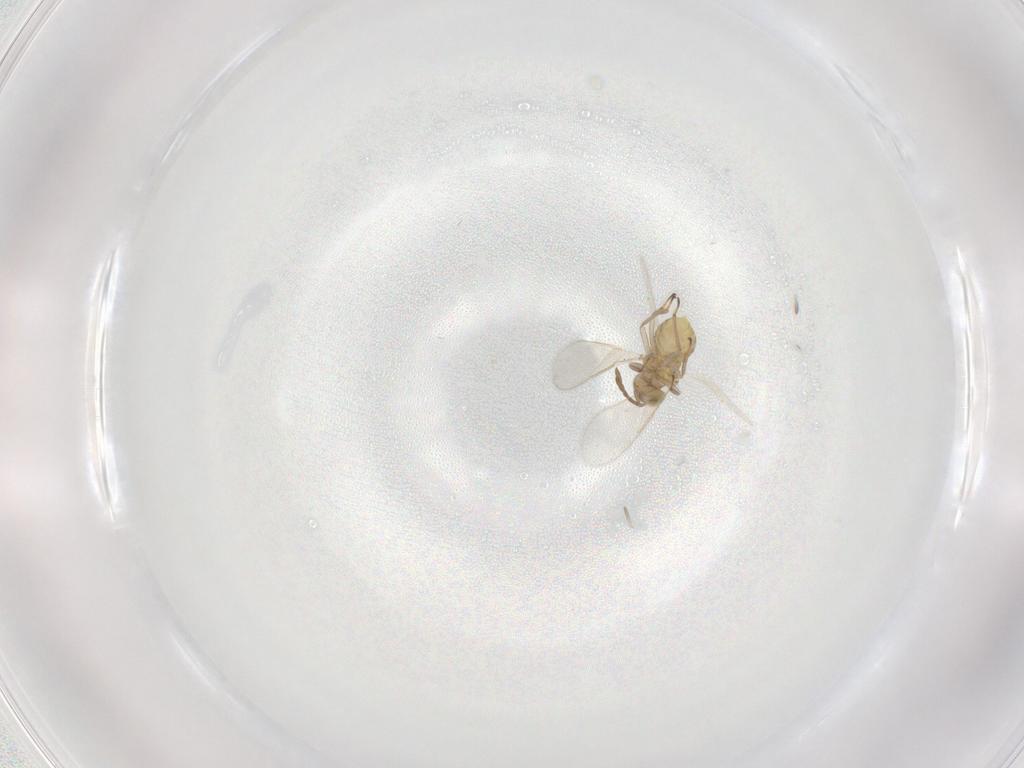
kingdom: Animalia
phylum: Arthropoda
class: Insecta
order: Hymenoptera
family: Aphelinidae
